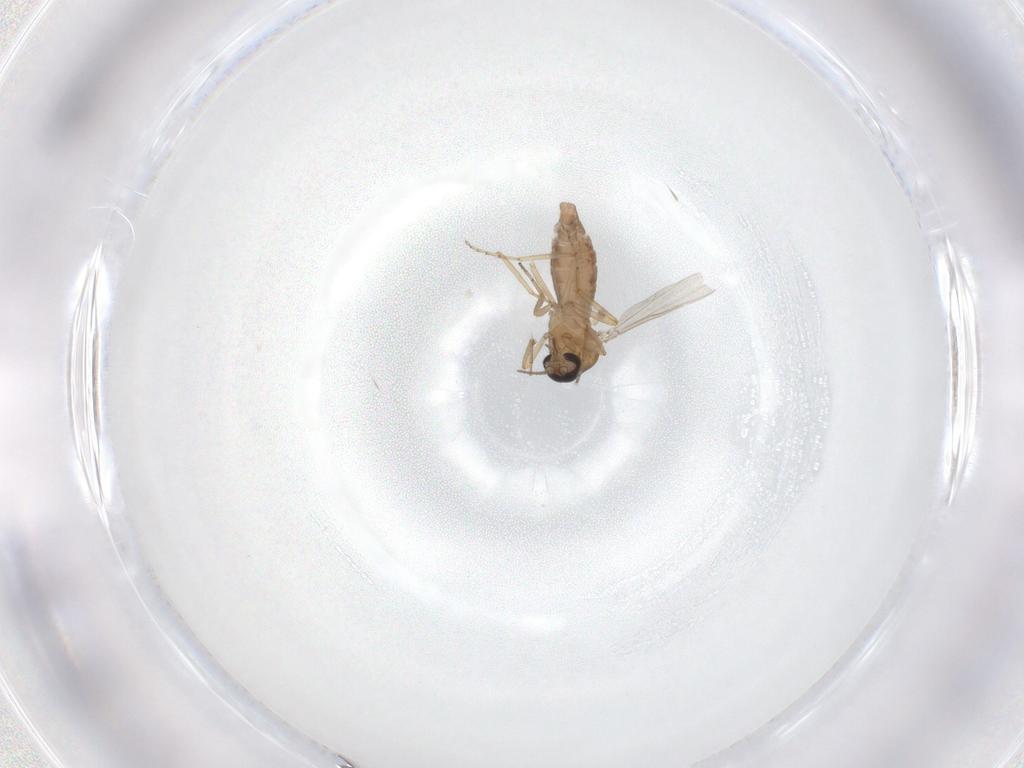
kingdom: Animalia
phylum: Arthropoda
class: Insecta
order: Diptera
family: Ceratopogonidae
